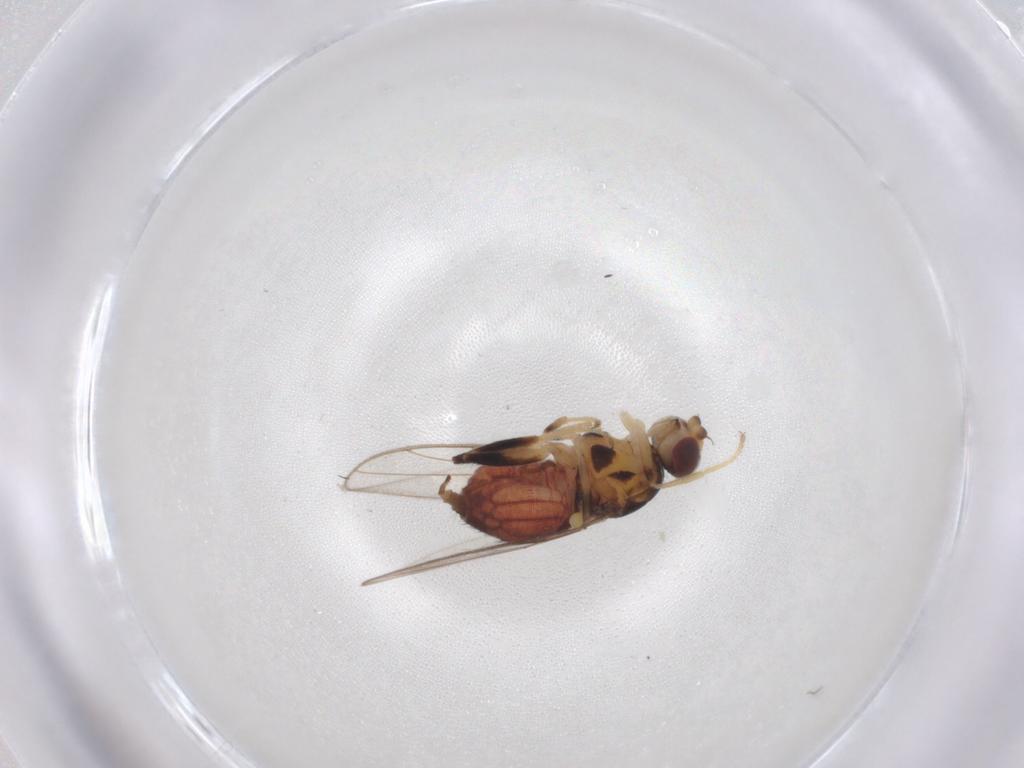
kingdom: Animalia
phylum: Arthropoda
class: Insecta
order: Diptera
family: Chloropidae
